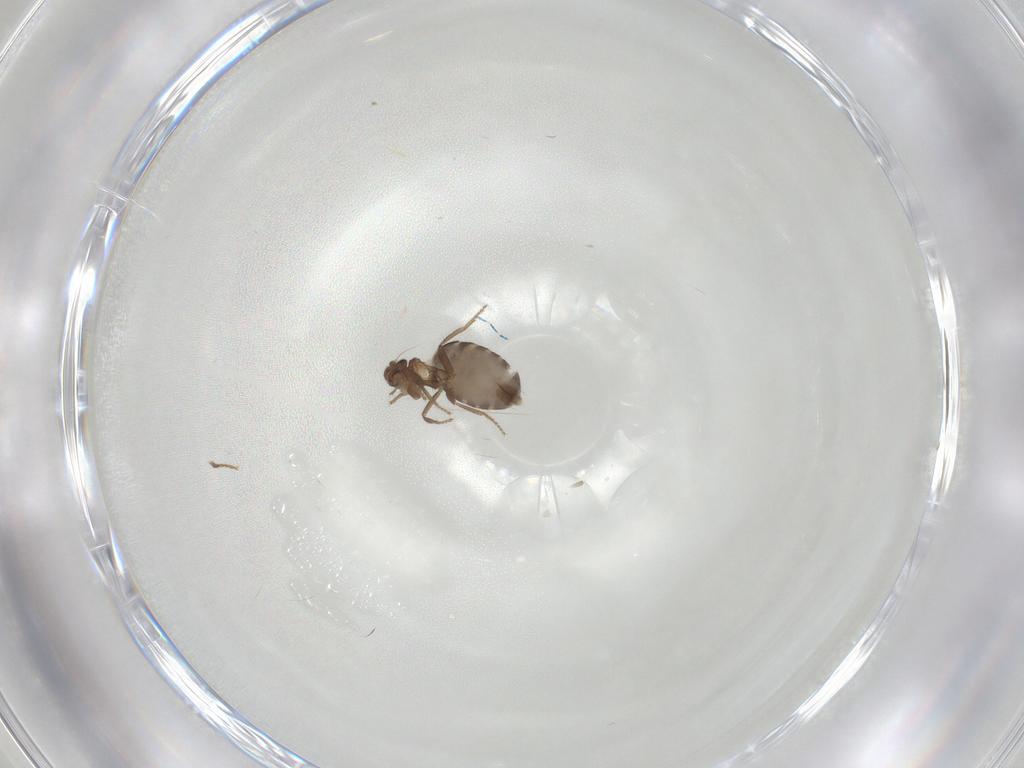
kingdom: Animalia
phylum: Arthropoda
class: Insecta
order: Diptera
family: Phoridae
